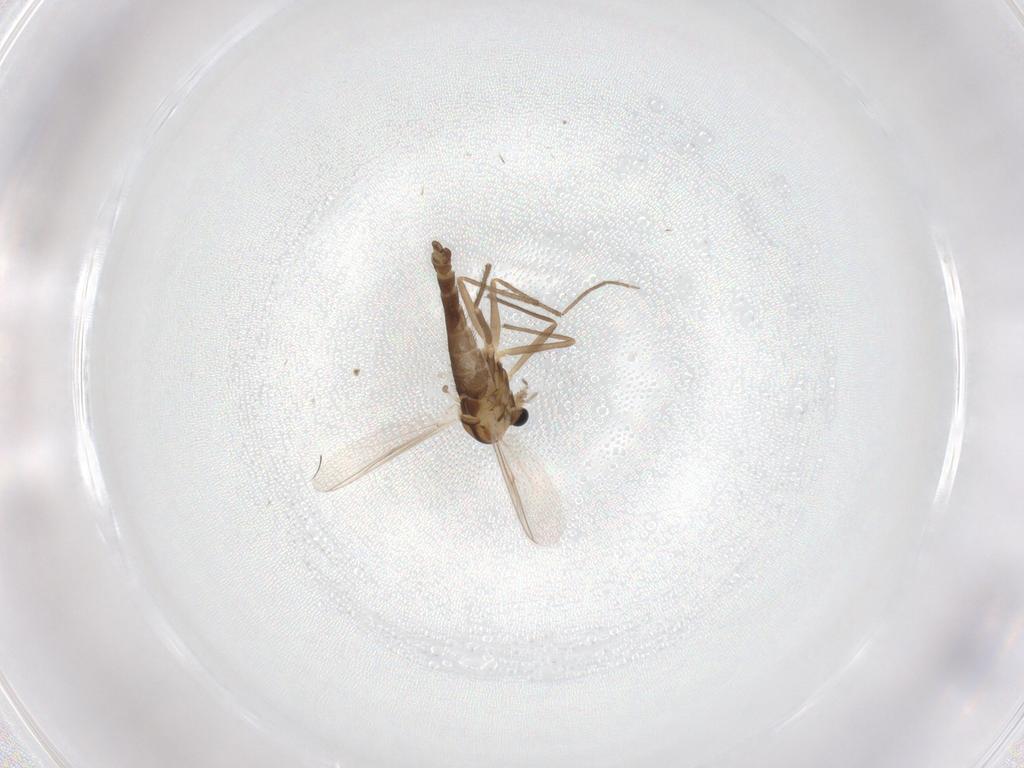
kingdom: Animalia
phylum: Arthropoda
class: Insecta
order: Diptera
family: Chironomidae
